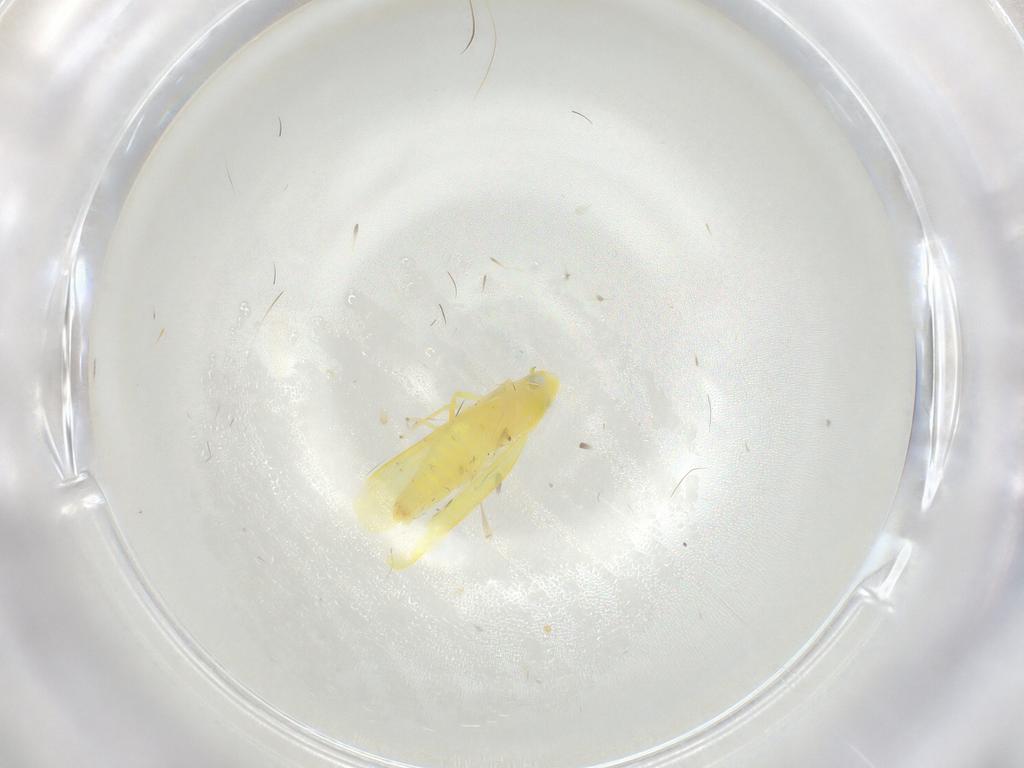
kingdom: Animalia
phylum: Arthropoda
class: Insecta
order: Hemiptera
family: Cicadellidae
